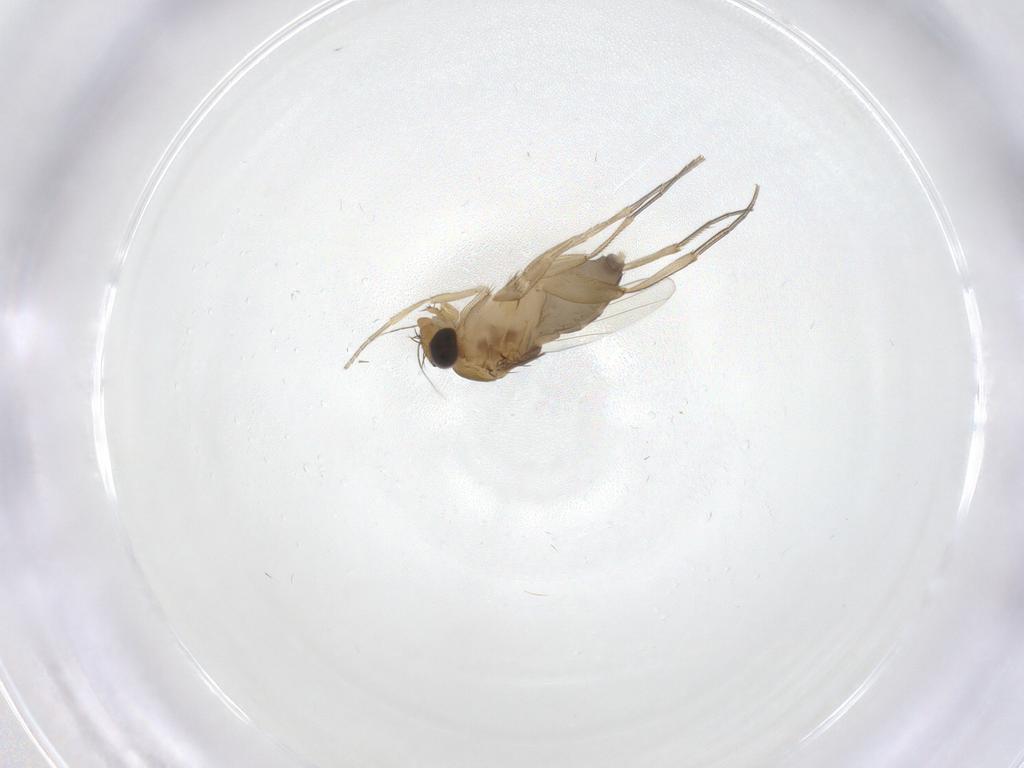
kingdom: Animalia
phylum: Arthropoda
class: Insecta
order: Diptera
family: Phoridae
